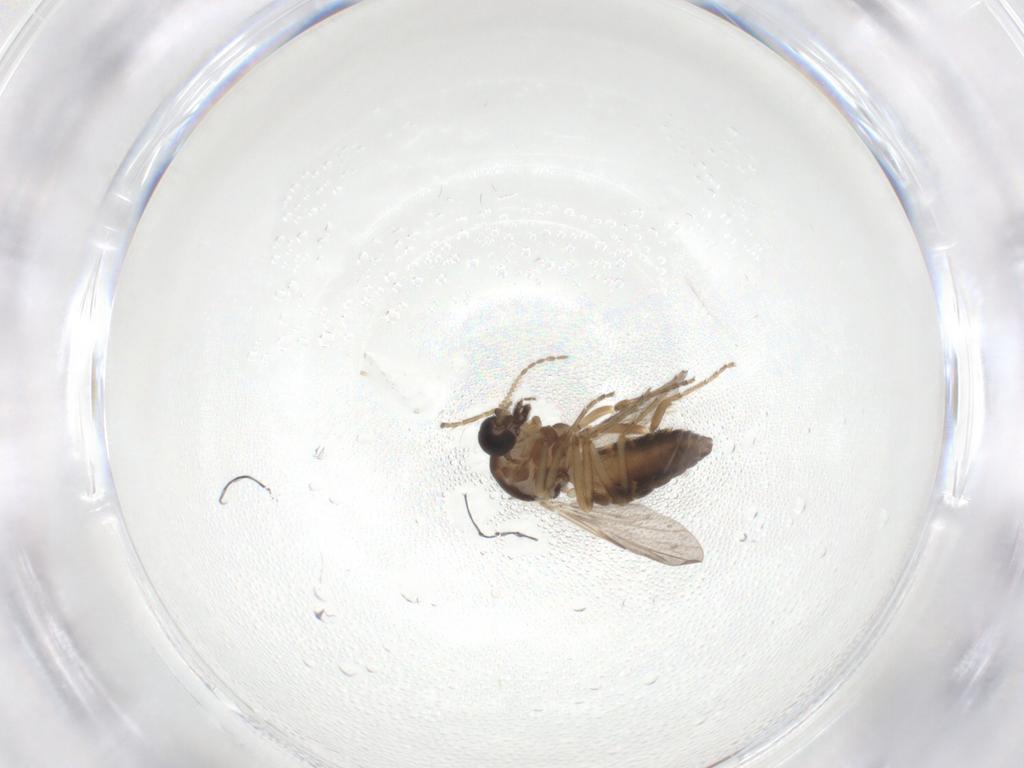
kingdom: Animalia
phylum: Arthropoda
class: Insecta
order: Diptera
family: Ceratopogonidae
